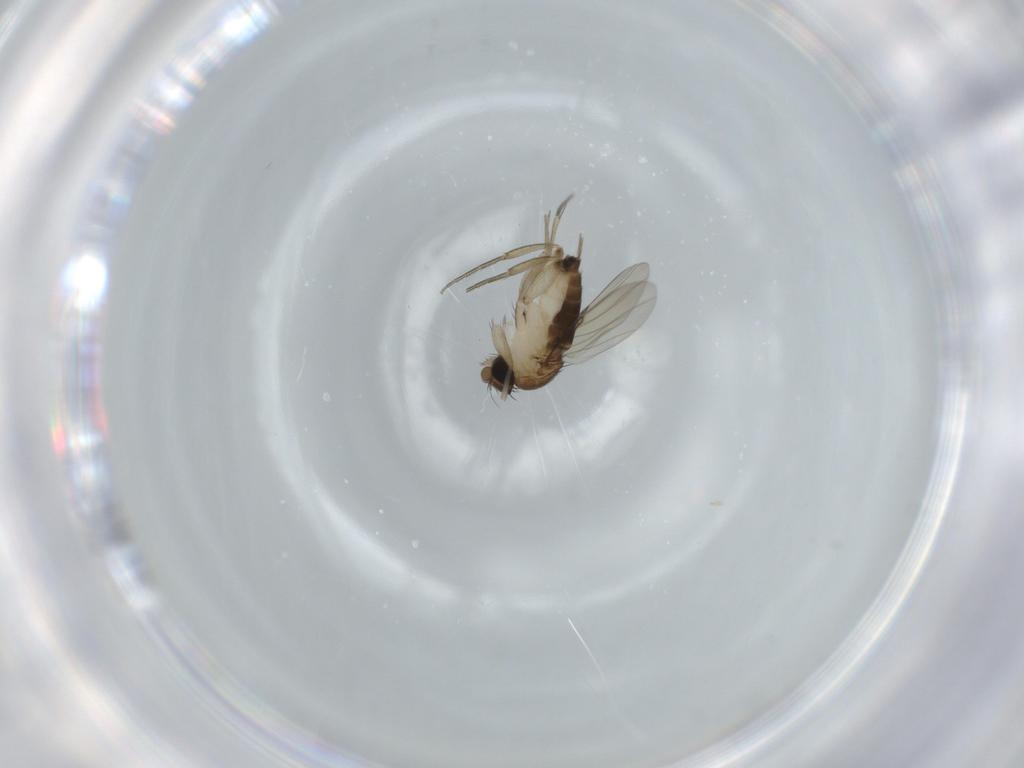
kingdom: Animalia
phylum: Arthropoda
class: Insecta
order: Diptera
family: Phoridae
